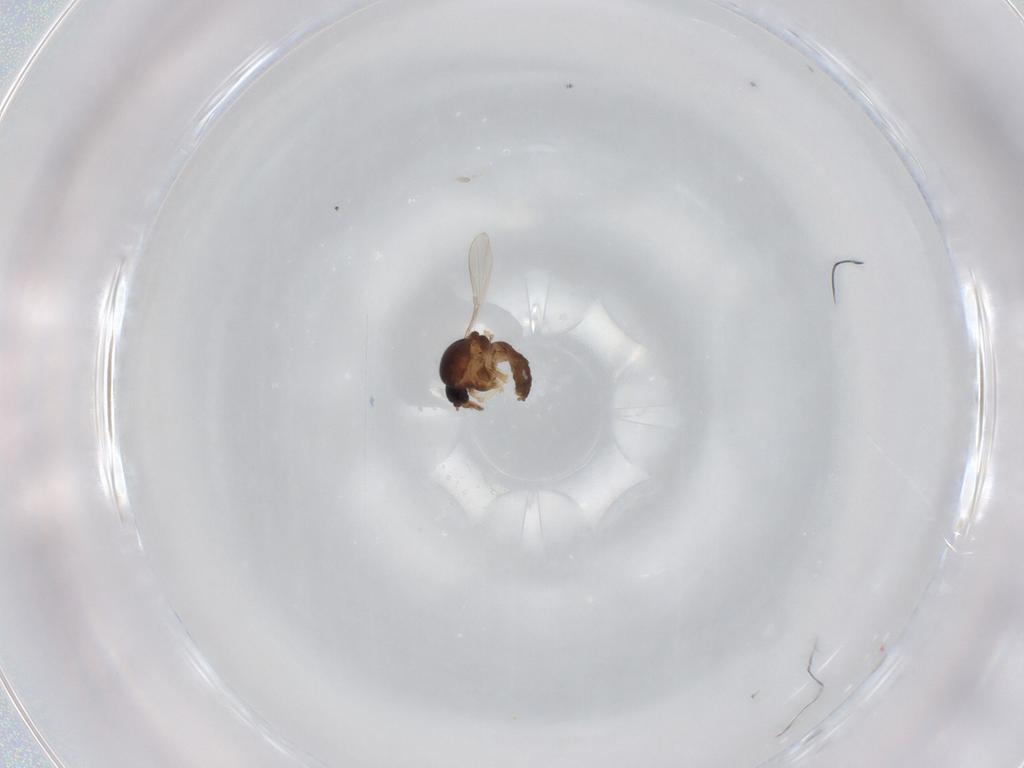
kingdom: Animalia
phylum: Arthropoda
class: Insecta
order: Diptera
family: Ceratopogonidae
